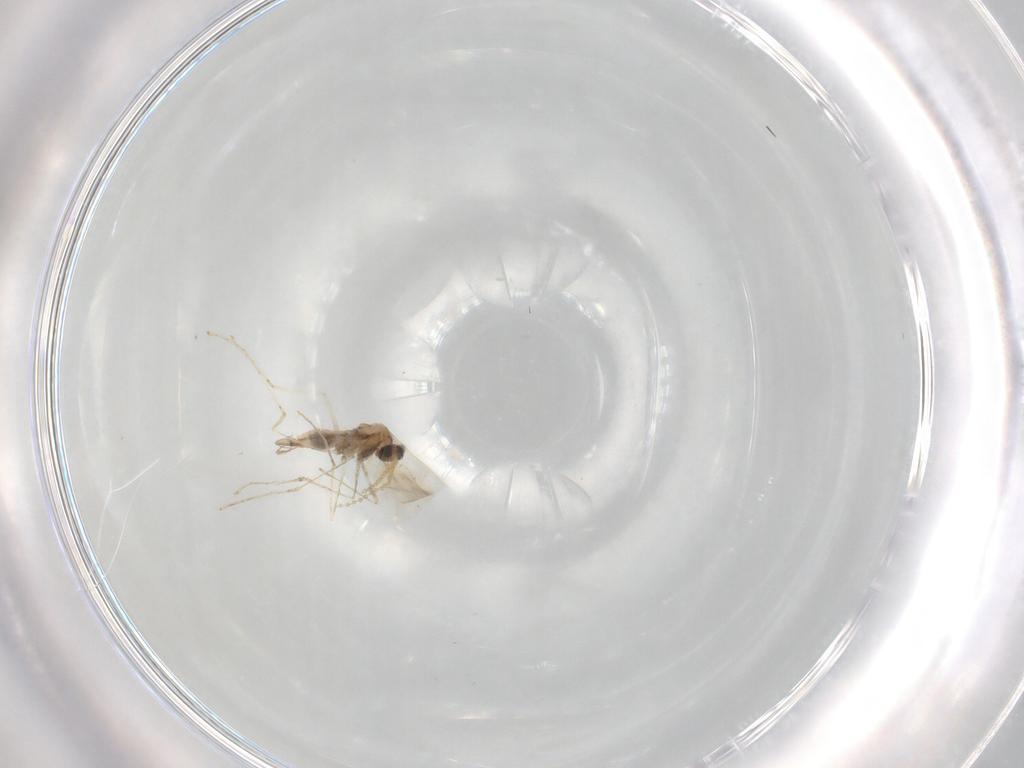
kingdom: Animalia
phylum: Arthropoda
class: Insecta
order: Diptera
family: Cecidomyiidae
